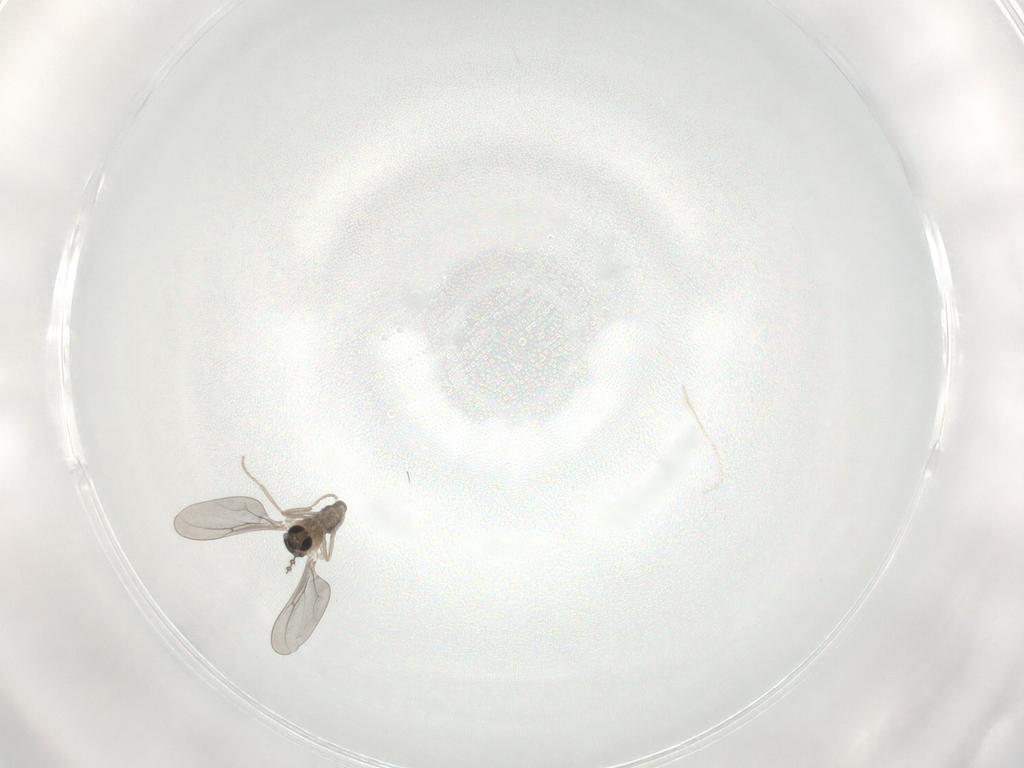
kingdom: Animalia
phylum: Arthropoda
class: Insecta
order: Diptera
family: Cecidomyiidae
